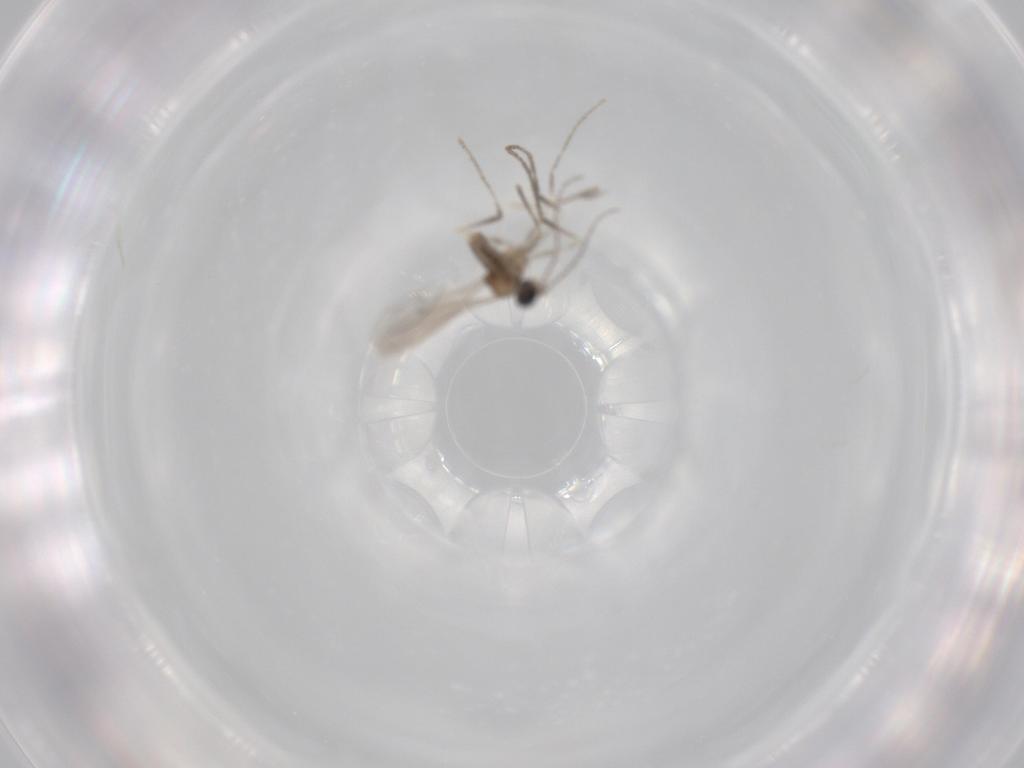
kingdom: Animalia
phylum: Arthropoda
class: Insecta
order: Diptera
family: Cecidomyiidae
